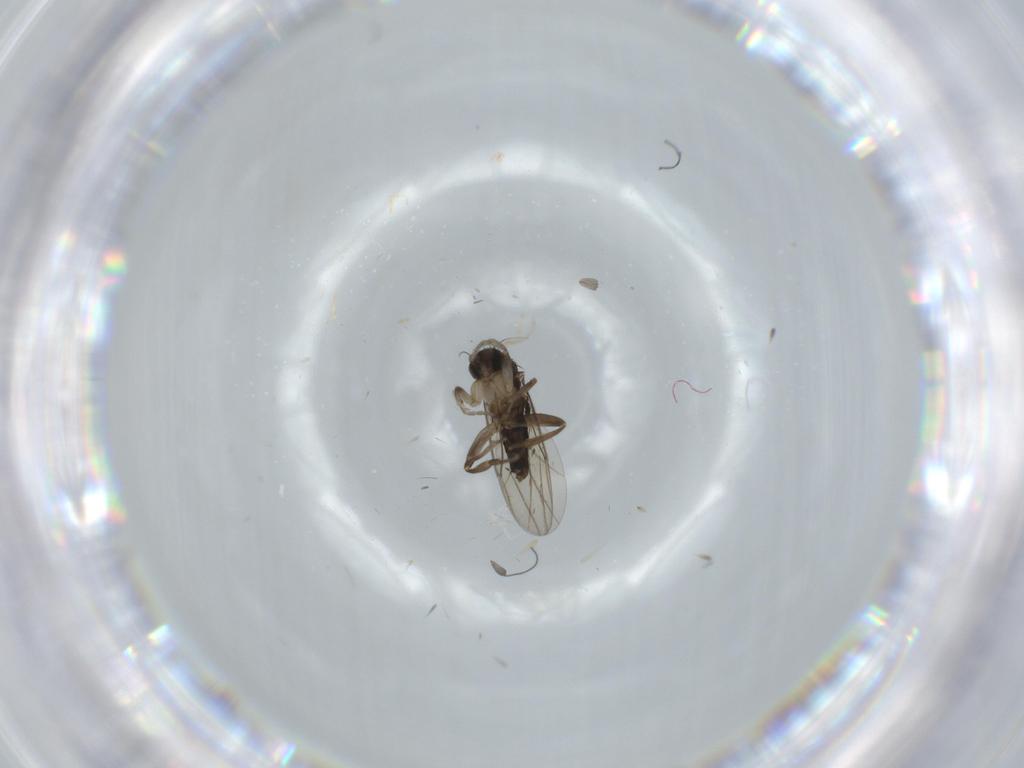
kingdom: Animalia
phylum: Arthropoda
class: Insecta
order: Diptera
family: Phoridae
